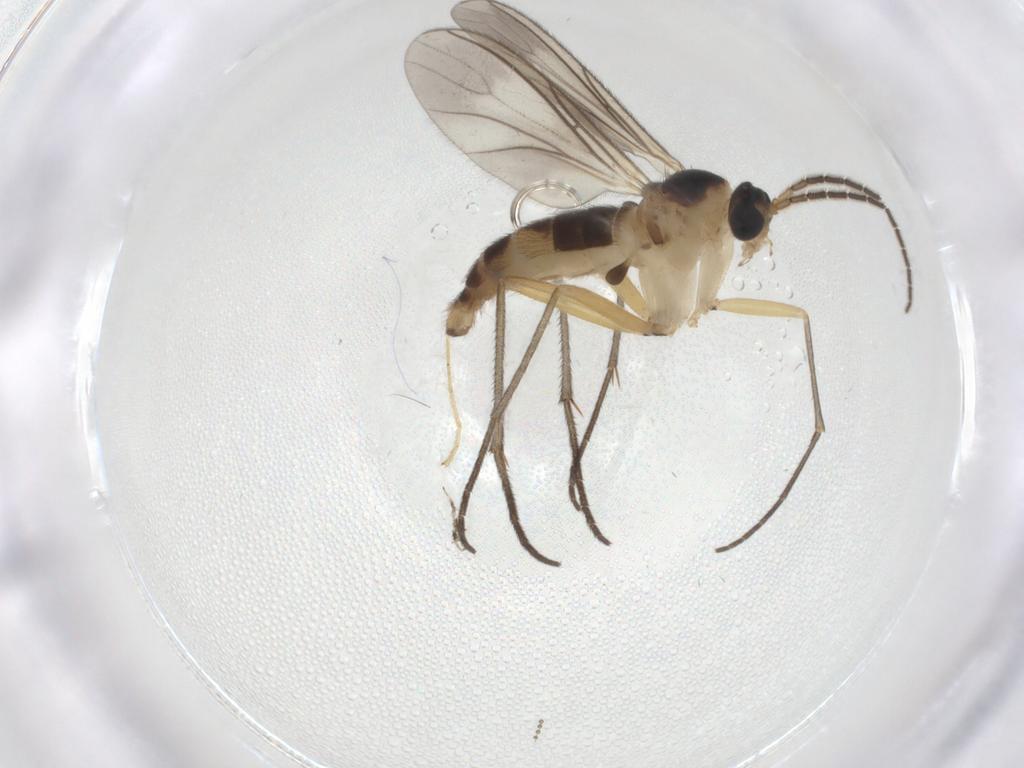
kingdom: Animalia
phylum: Arthropoda
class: Insecta
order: Diptera
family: Sciaridae
